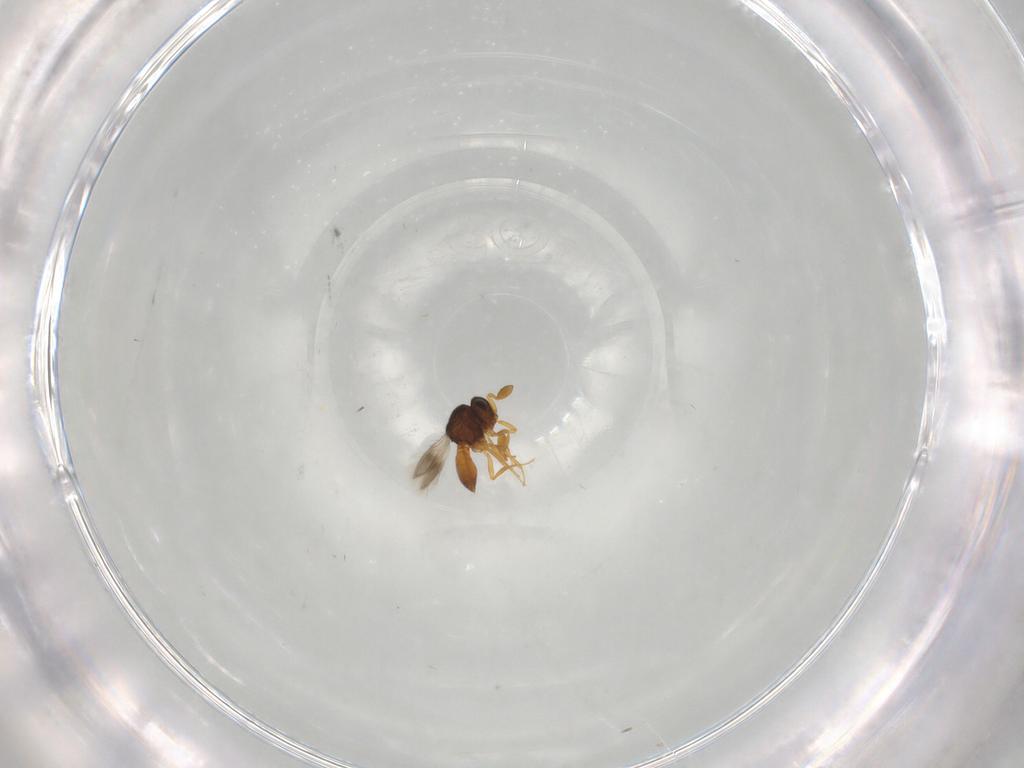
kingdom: Animalia
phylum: Arthropoda
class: Insecta
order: Hymenoptera
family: Scelionidae
